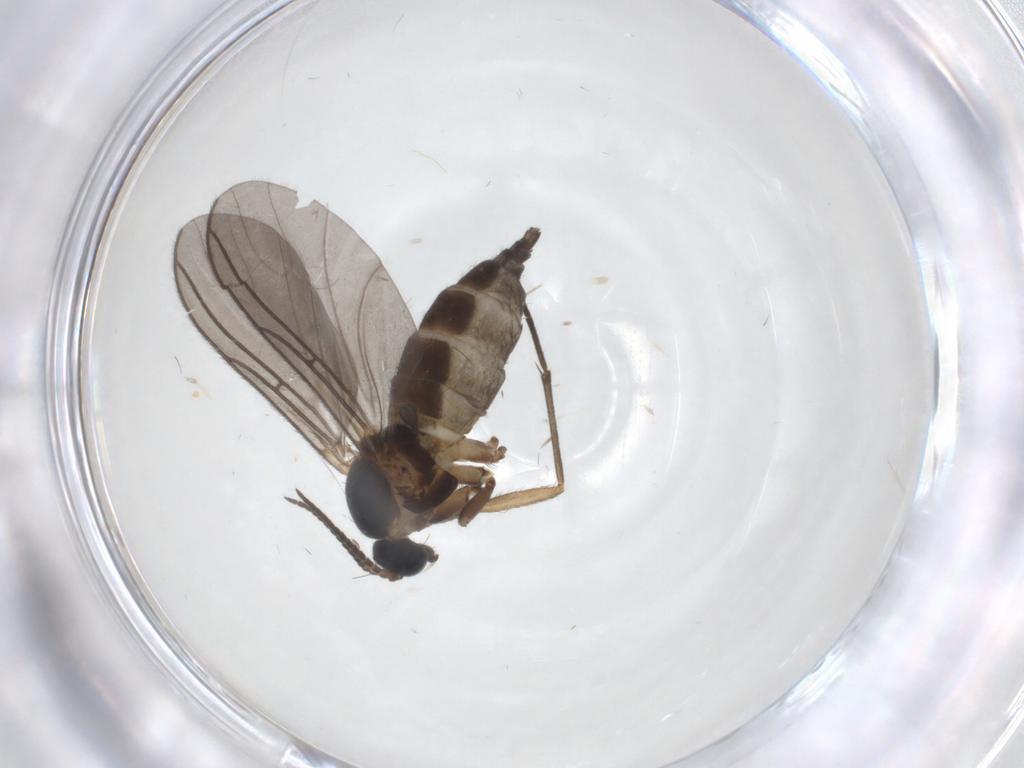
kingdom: Animalia
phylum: Arthropoda
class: Insecta
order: Diptera
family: Sciaridae
